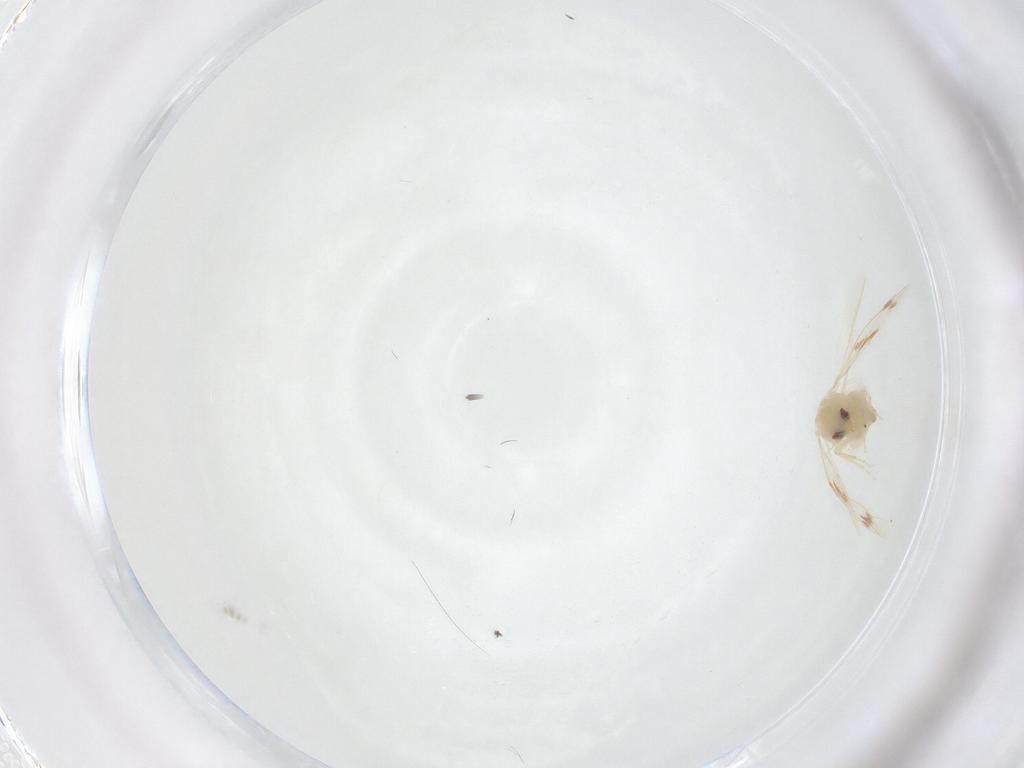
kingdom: Animalia
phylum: Arthropoda
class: Insecta
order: Hemiptera
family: Aleyrodidae
